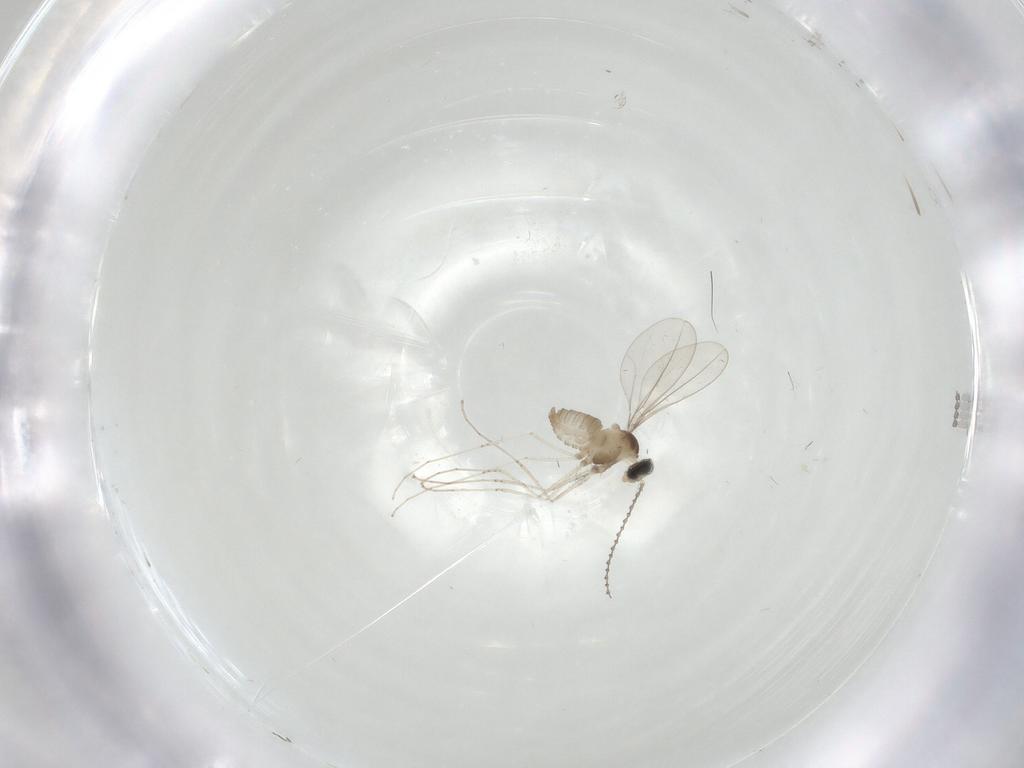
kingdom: Animalia
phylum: Arthropoda
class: Insecta
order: Diptera
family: Cecidomyiidae
